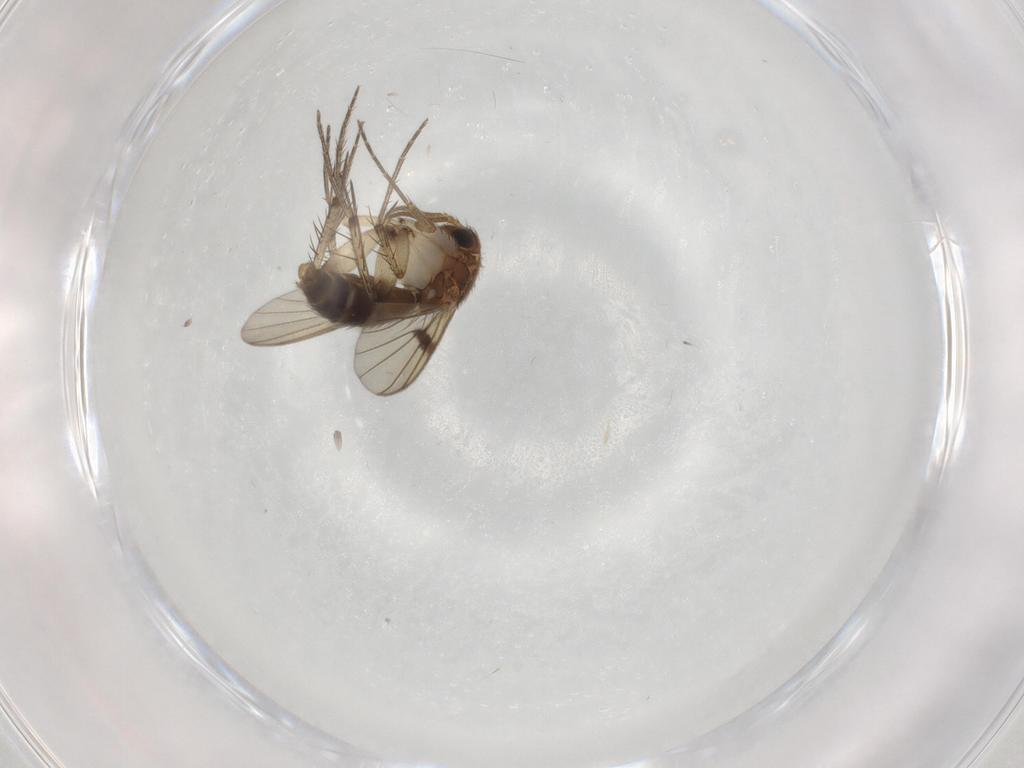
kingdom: Animalia
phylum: Arthropoda
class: Insecta
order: Diptera
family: Mycetophilidae
